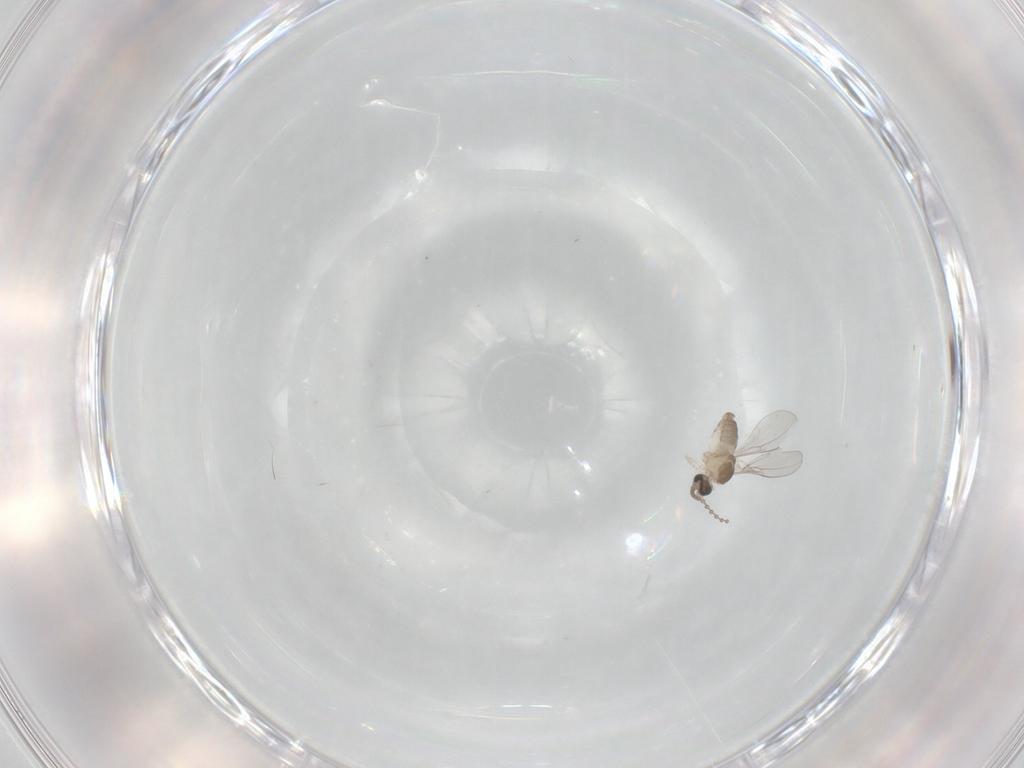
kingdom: Animalia
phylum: Arthropoda
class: Insecta
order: Diptera
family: Cecidomyiidae
